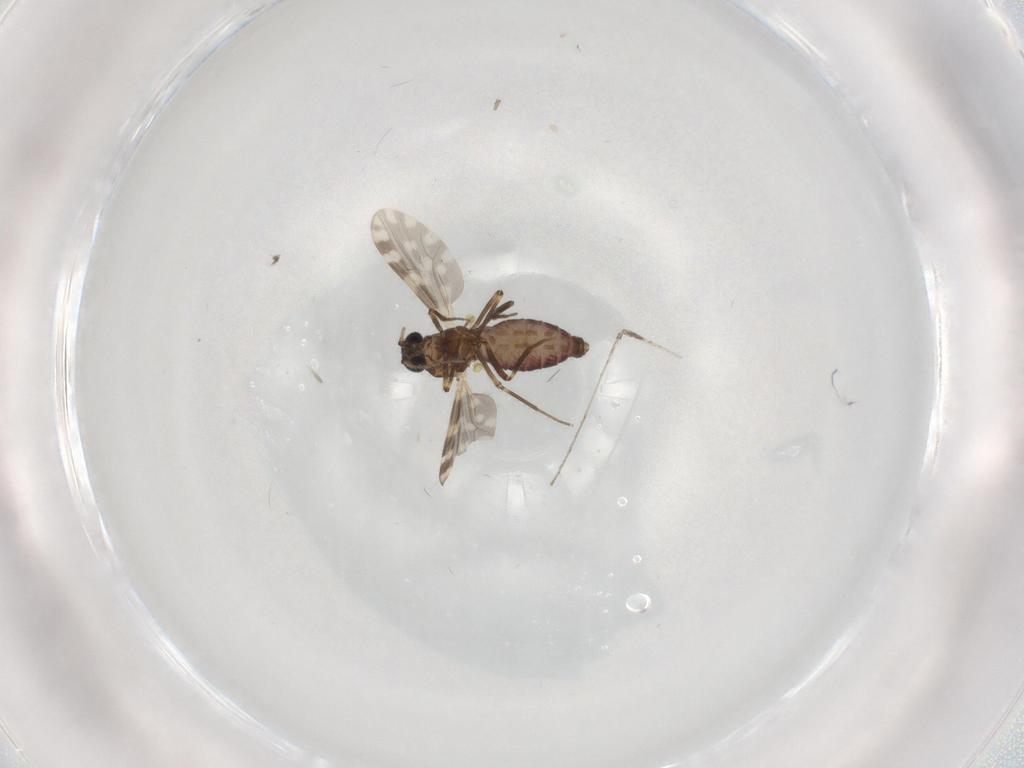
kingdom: Animalia
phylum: Arthropoda
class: Insecta
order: Diptera
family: Ceratopogonidae
